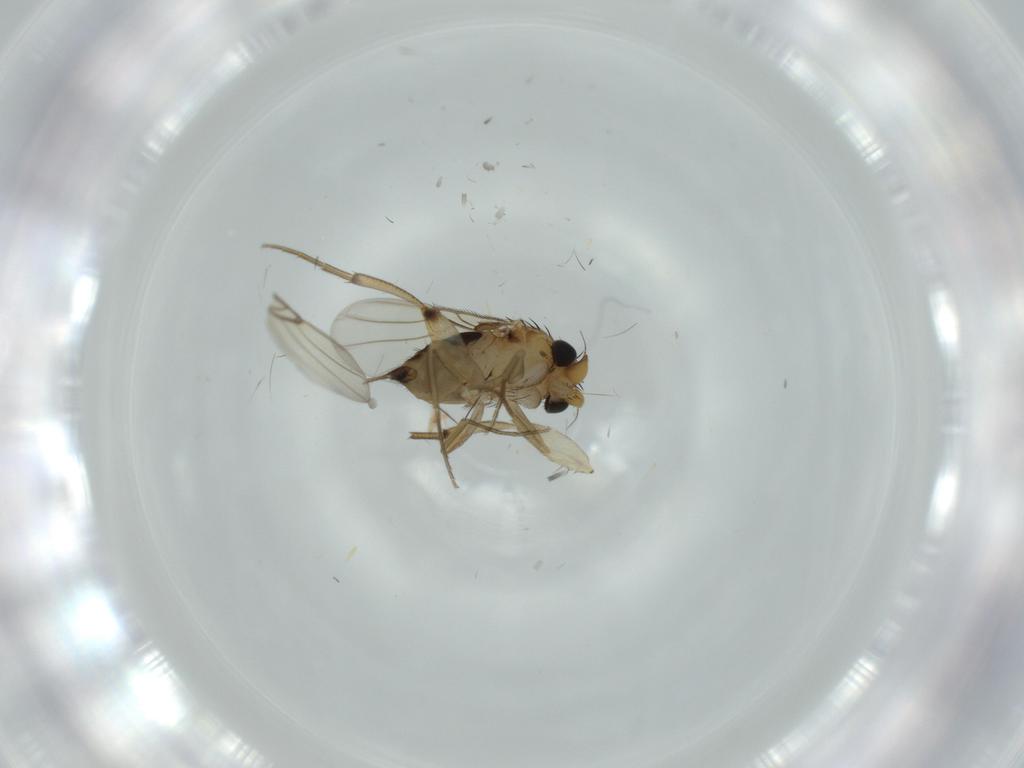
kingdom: Animalia
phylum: Arthropoda
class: Insecta
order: Diptera
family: Milichiidae
